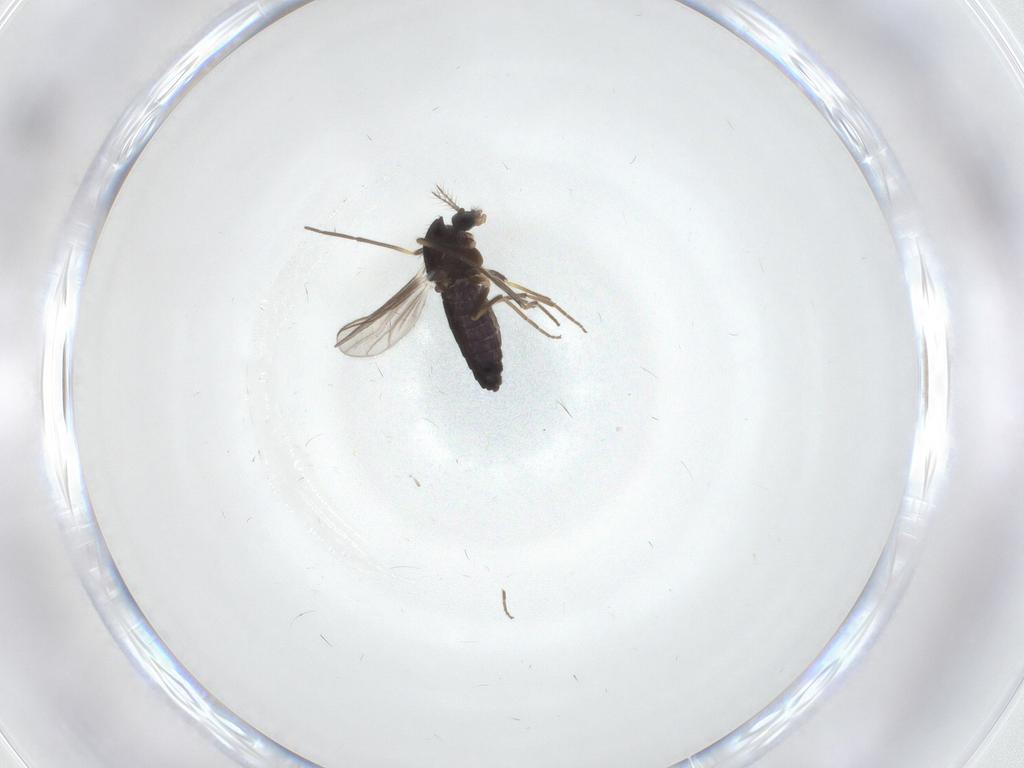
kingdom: Animalia
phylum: Arthropoda
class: Insecta
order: Diptera
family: Chironomidae
